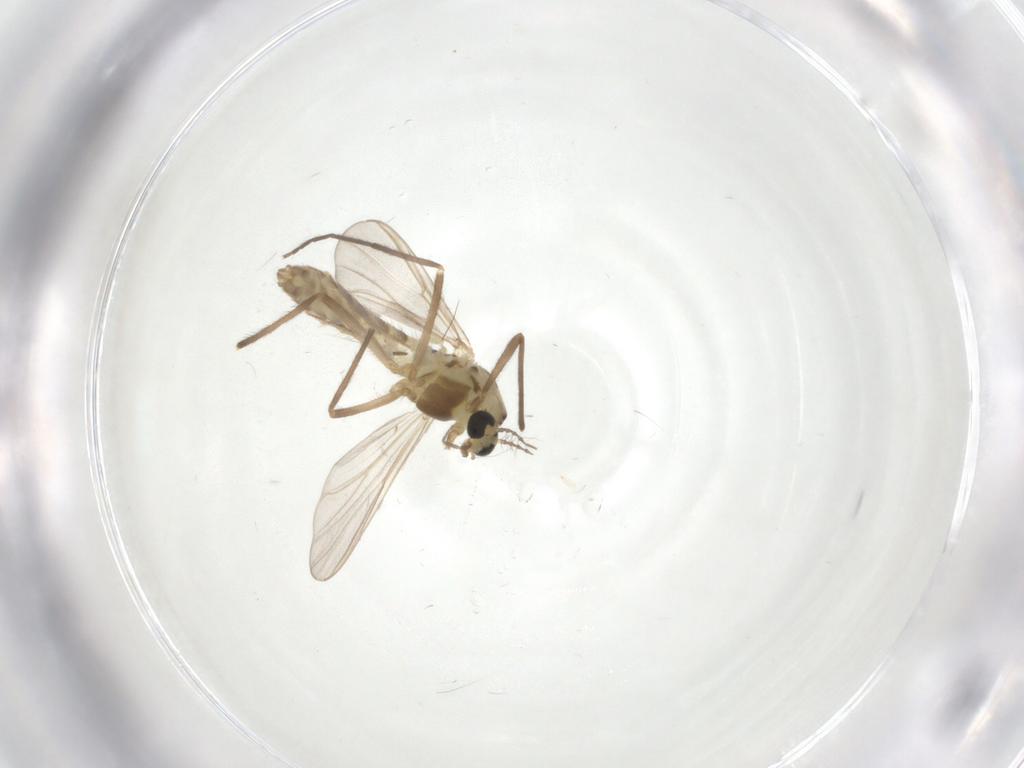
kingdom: Animalia
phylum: Arthropoda
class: Insecta
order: Diptera
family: Chironomidae
